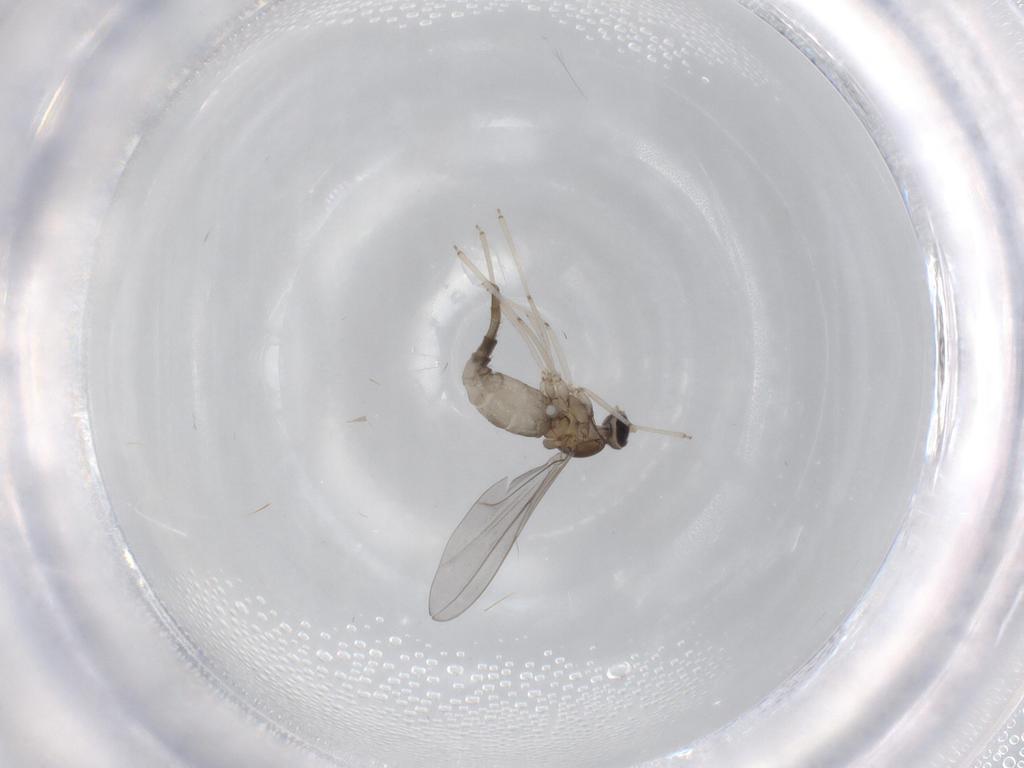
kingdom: Animalia
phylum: Arthropoda
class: Insecta
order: Diptera
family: Cecidomyiidae
